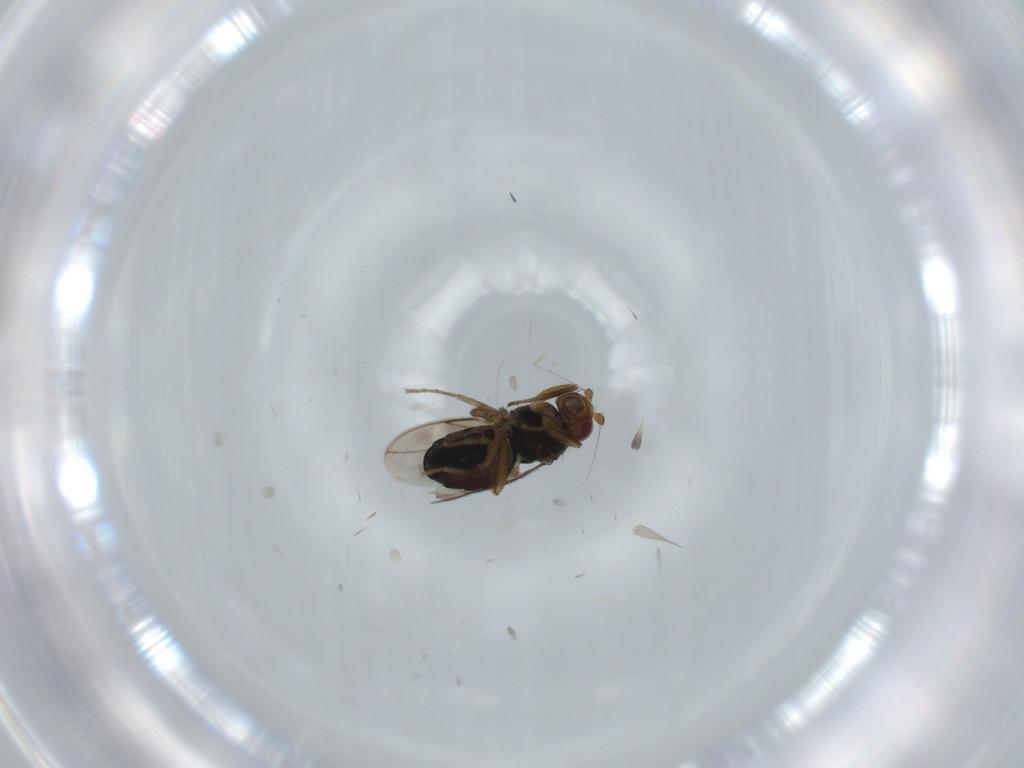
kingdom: Animalia
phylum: Arthropoda
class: Insecta
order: Diptera
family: Sphaeroceridae
